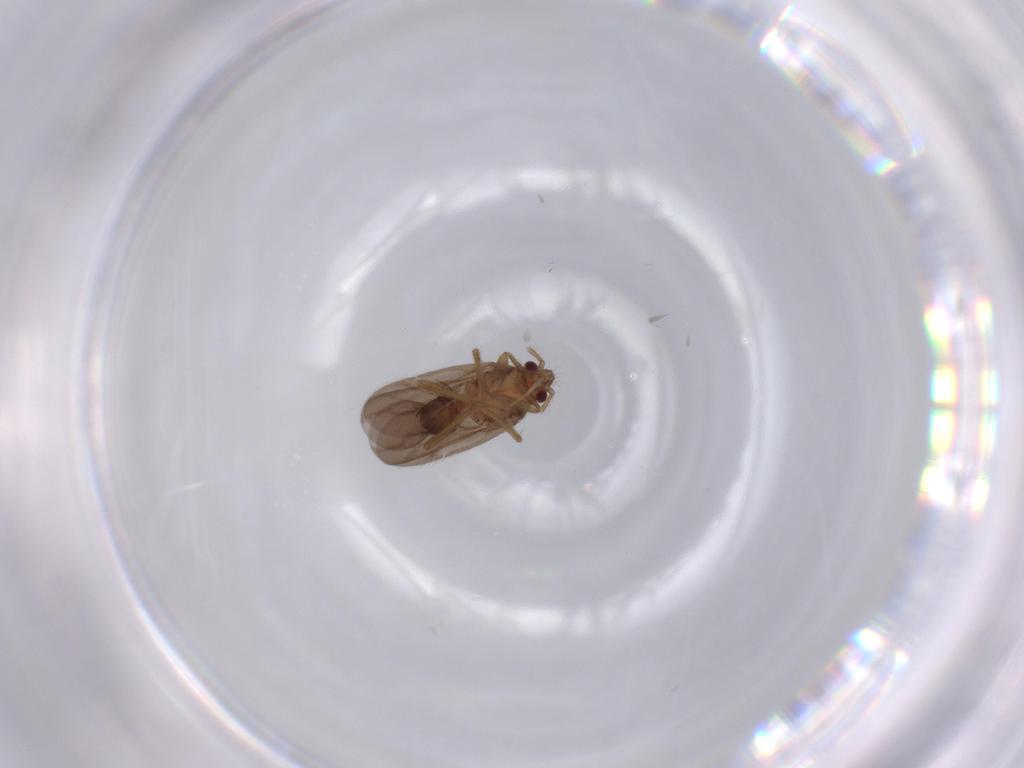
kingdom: Animalia
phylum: Arthropoda
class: Insecta
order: Hemiptera
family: Ceratocombidae
